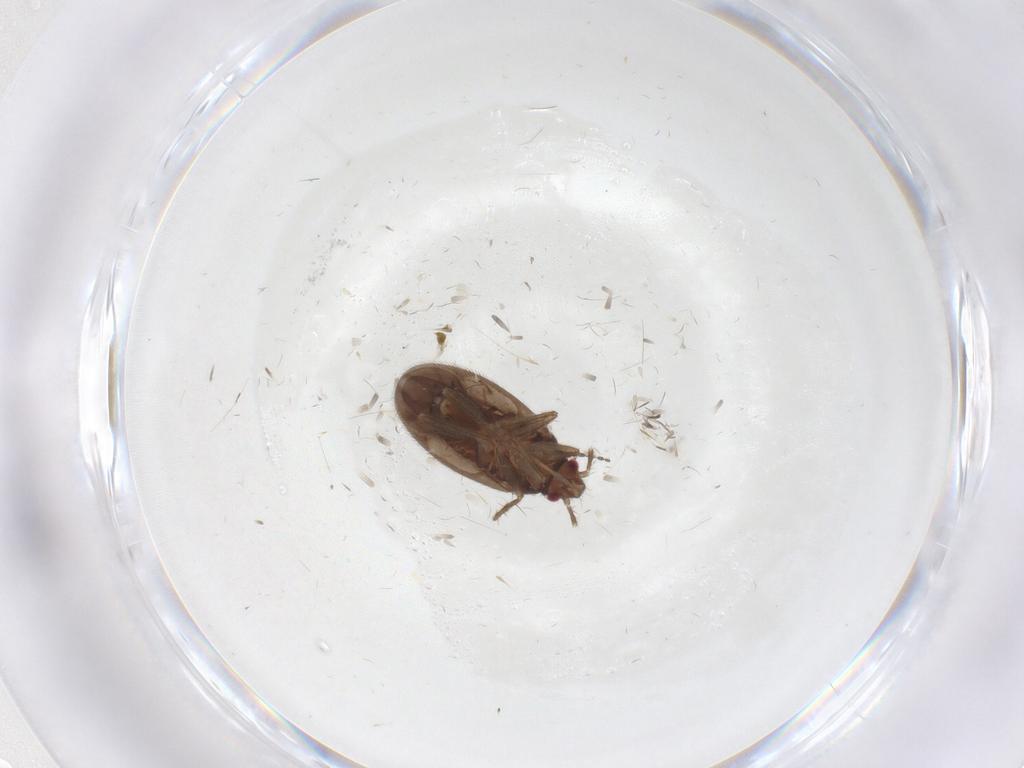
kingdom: Animalia
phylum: Arthropoda
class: Insecta
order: Hemiptera
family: Ceratocombidae
